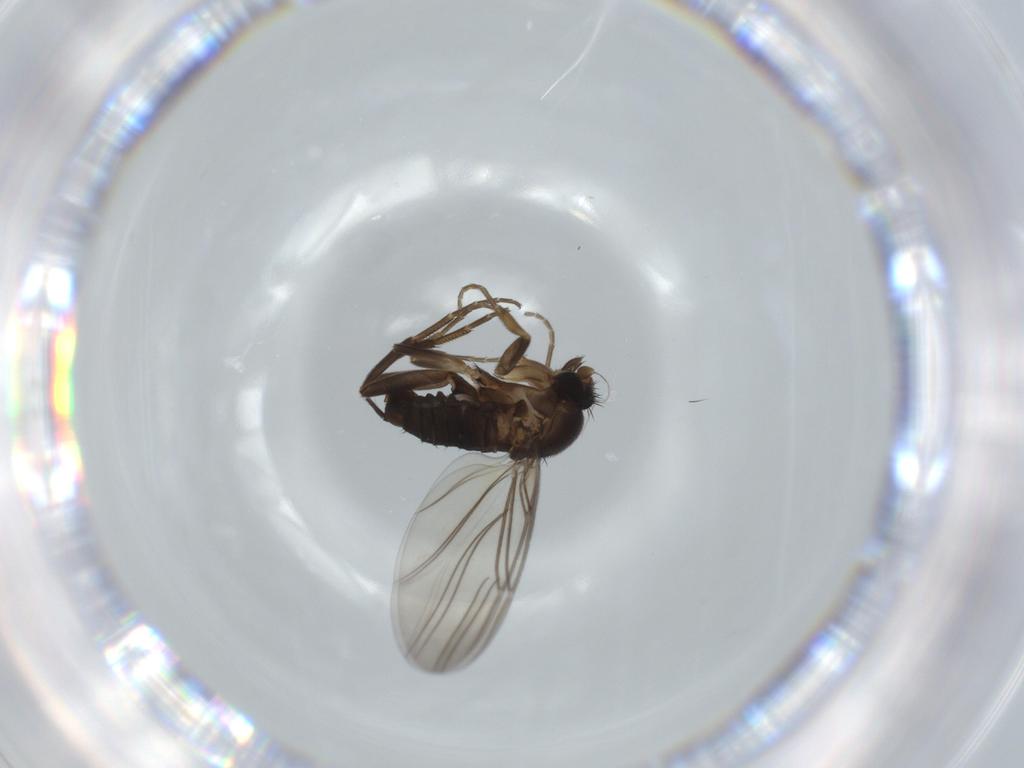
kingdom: Animalia
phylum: Arthropoda
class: Insecta
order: Diptera
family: Cecidomyiidae
